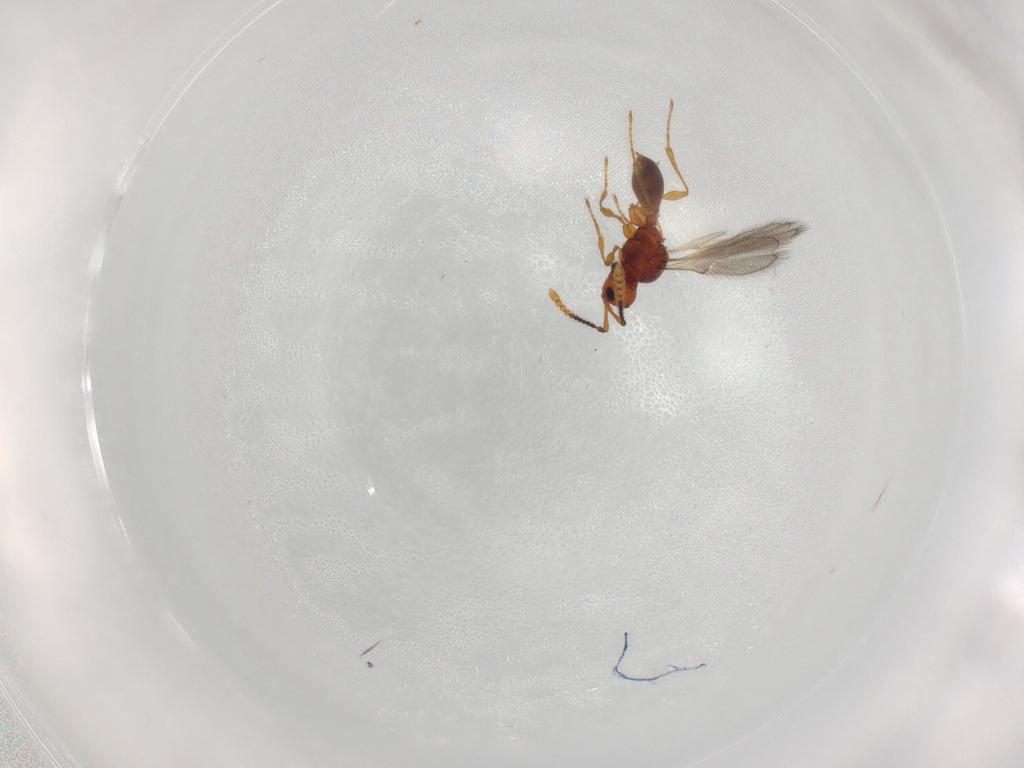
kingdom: Animalia
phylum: Arthropoda
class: Insecta
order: Hymenoptera
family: Diapriidae
